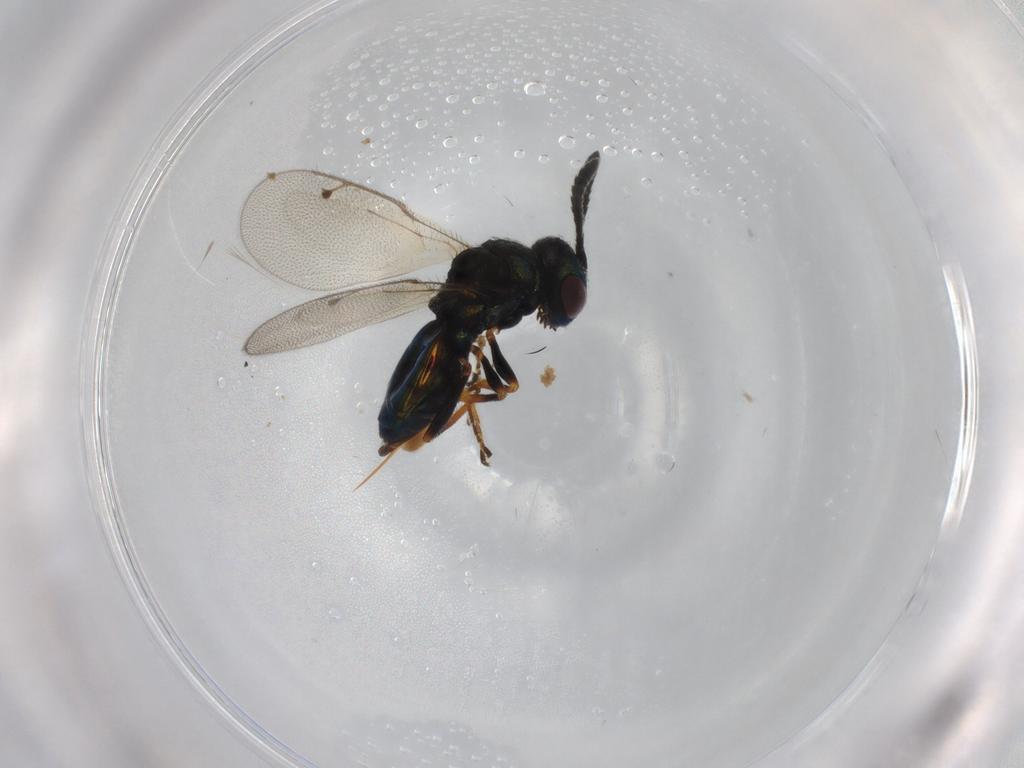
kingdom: Animalia
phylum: Arthropoda
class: Insecta
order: Hymenoptera
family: Pteromalidae
